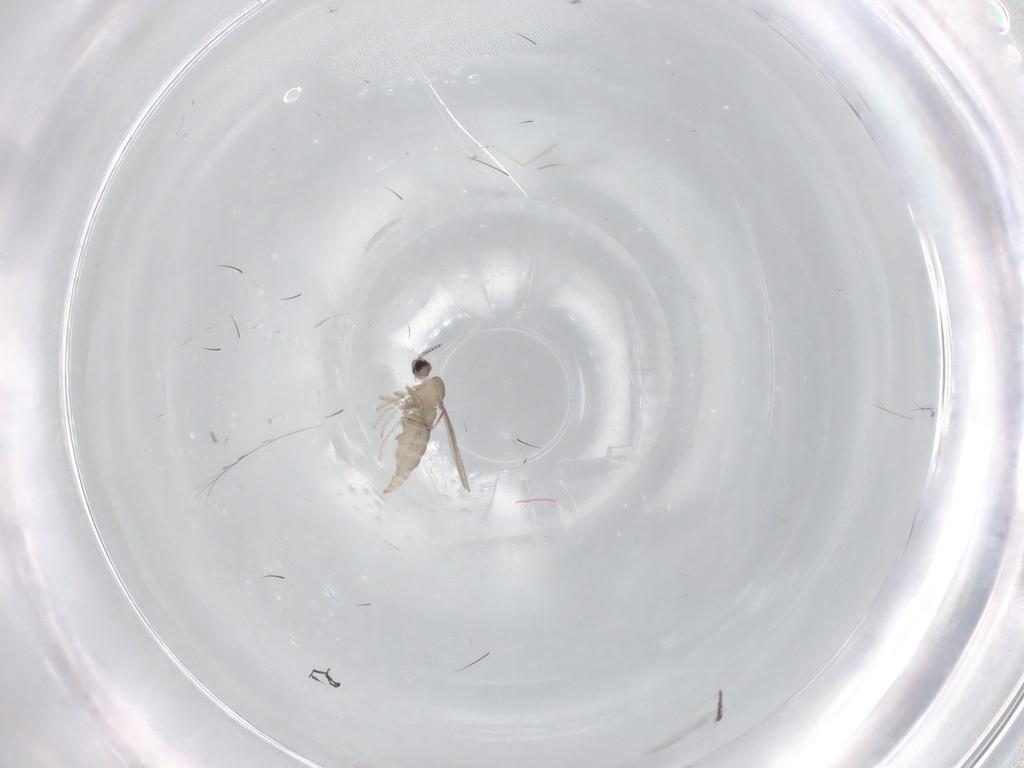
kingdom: Animalia
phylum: Arthropoda
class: Insecta
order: Diptera
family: Cecidomyiidae
